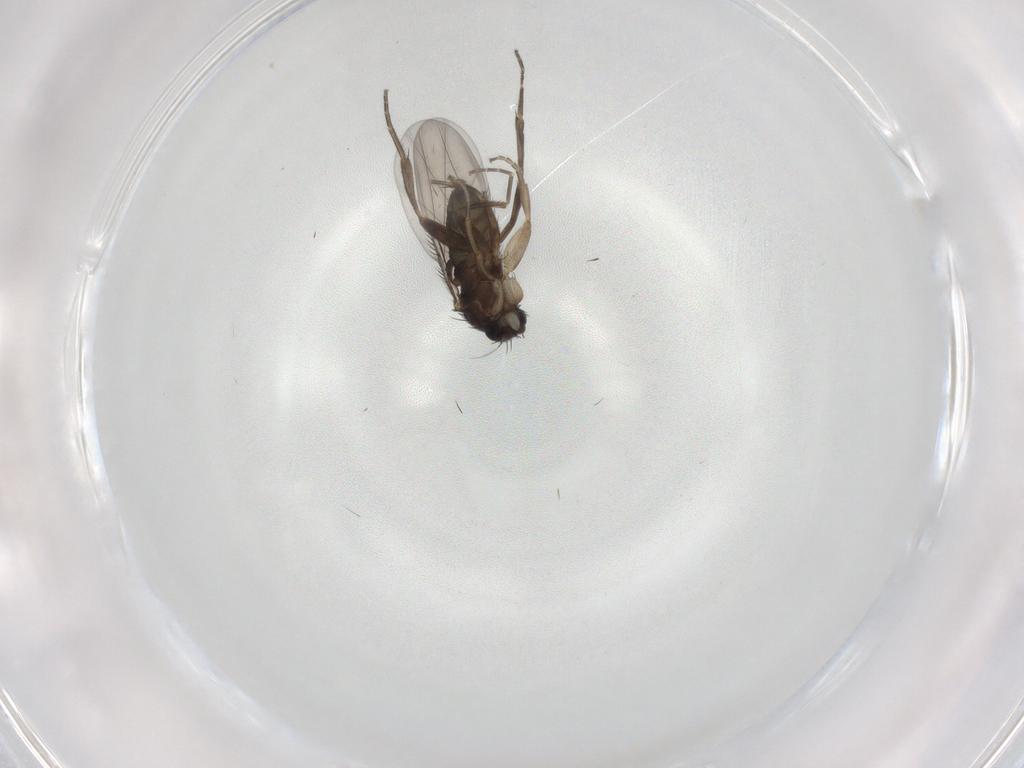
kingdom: Animalia
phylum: Arthropoda
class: Insecta
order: Diptera
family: Phoridae
